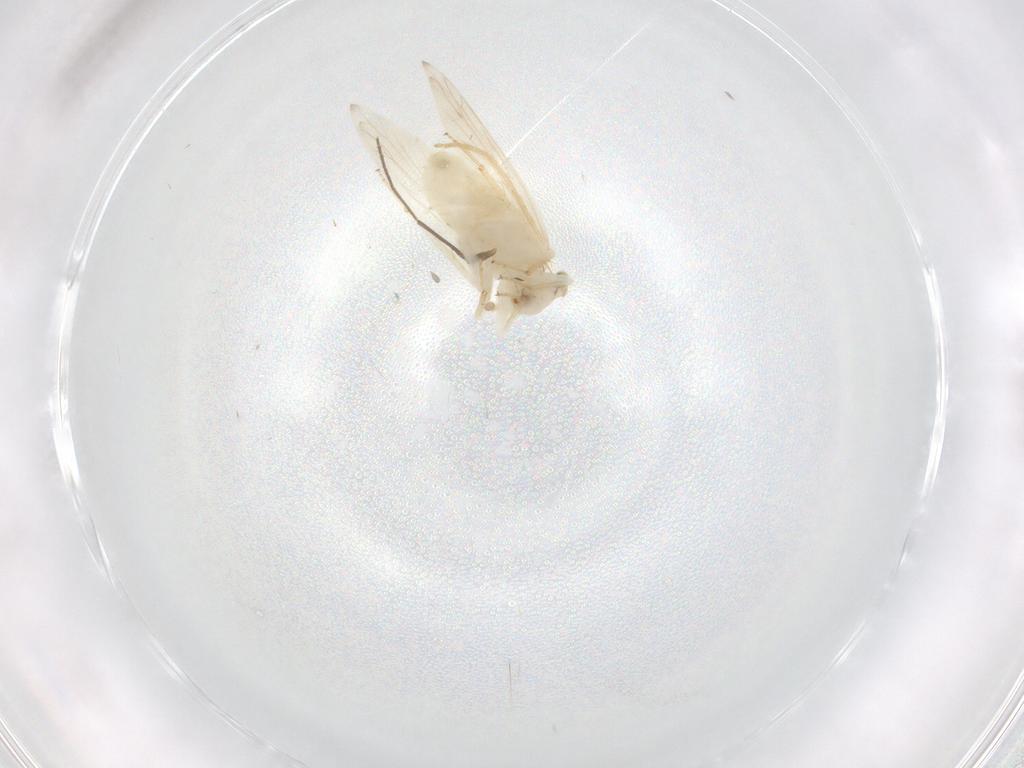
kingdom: Animalia
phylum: Arthropoda
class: Insecta
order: Psocodea
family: Lepidopsocidae
